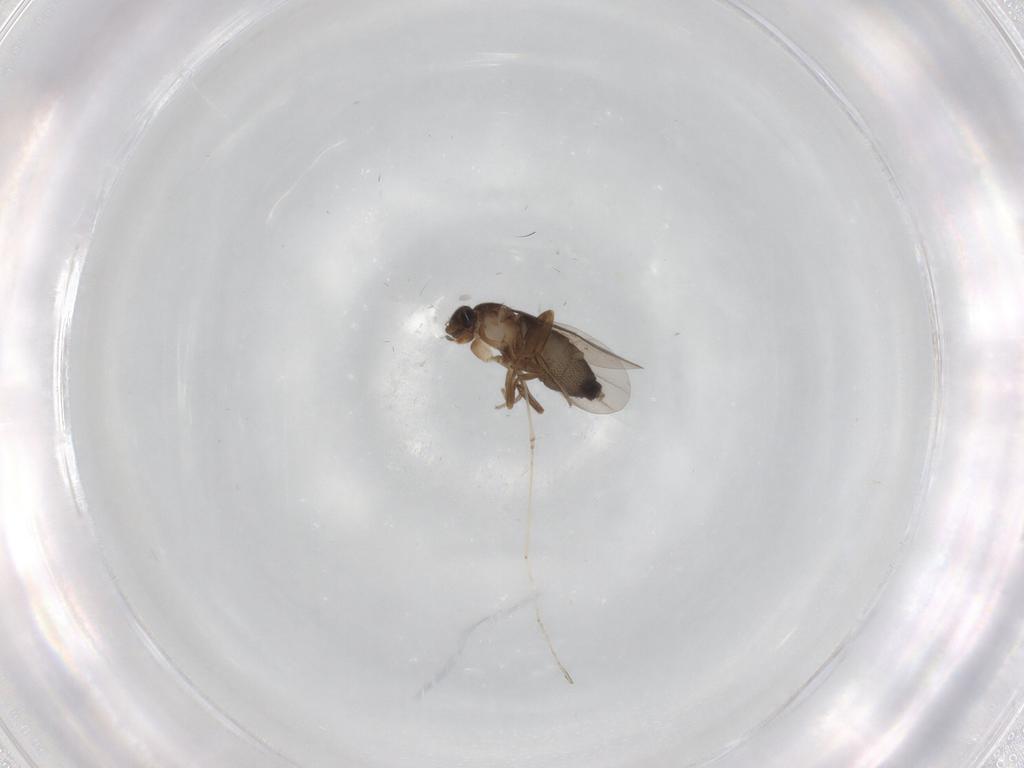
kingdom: Animalia
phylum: Arthropoda
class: Insecta
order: Diptera
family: Phoridae
